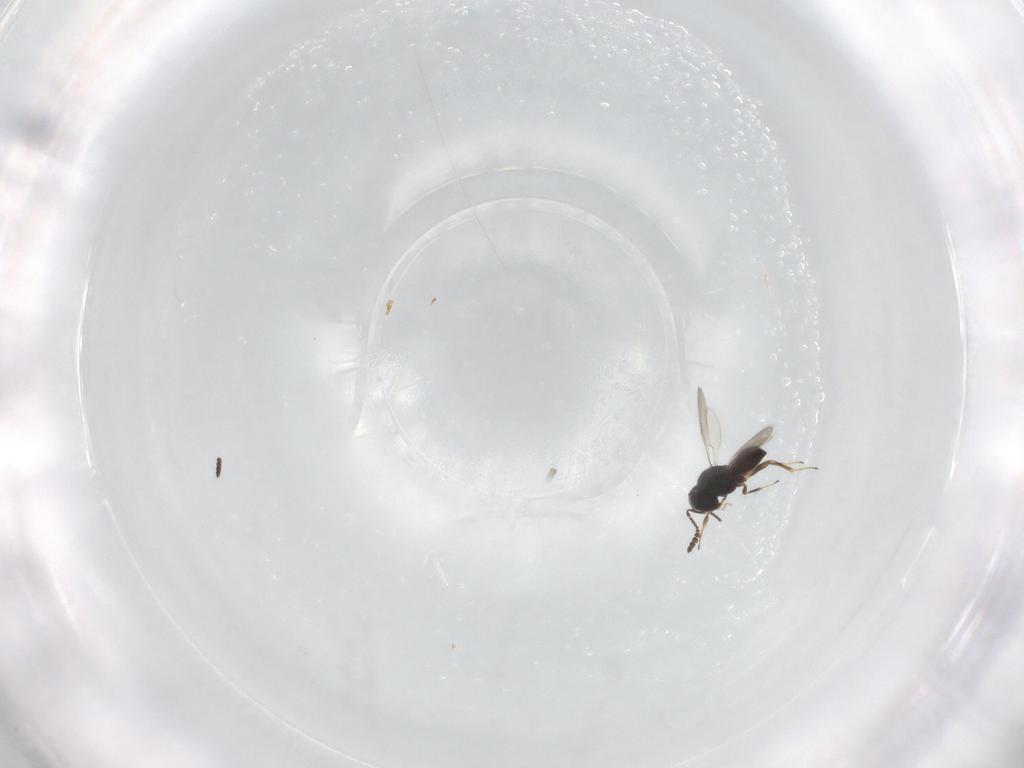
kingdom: Animalia
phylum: Arthropoda
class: Insecta
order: Hymenoptera
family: Scelionidae
